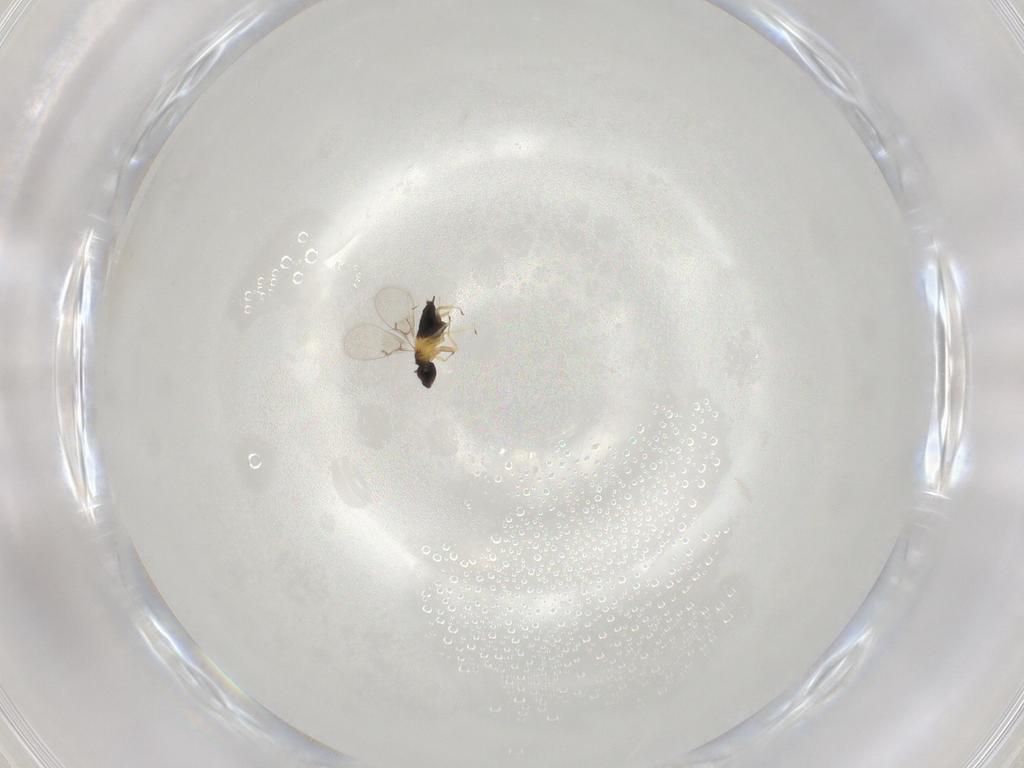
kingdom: Animalia
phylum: Arthropoda
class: Insecta
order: Hymenoptera
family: Trichogrammatidae
